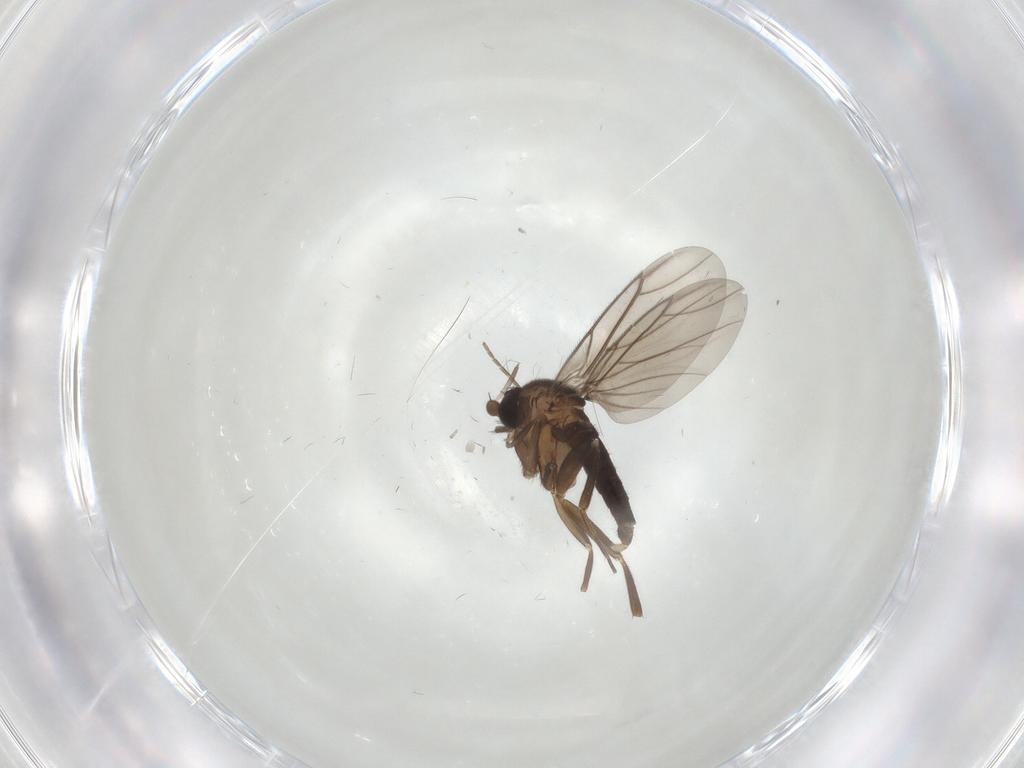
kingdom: Animalia
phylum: Arthropoda
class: Insecta
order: Diptera
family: Phoridae
